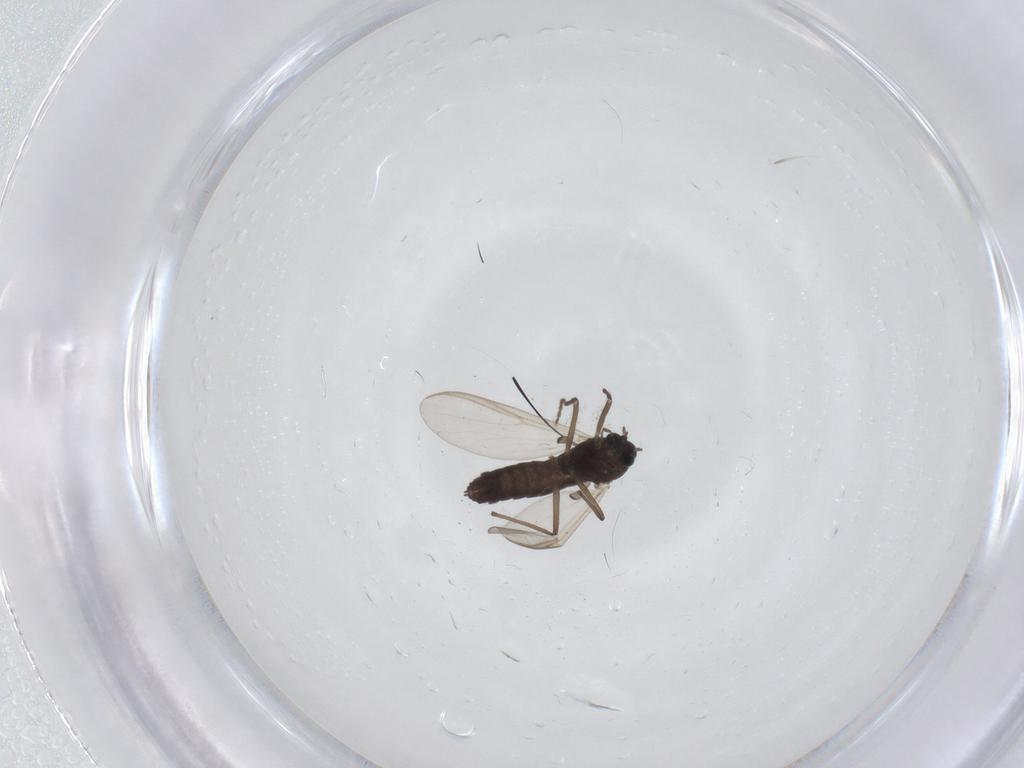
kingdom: Animalia
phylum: Arthropoda
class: Insecta
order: Diptera
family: Chironomidae
